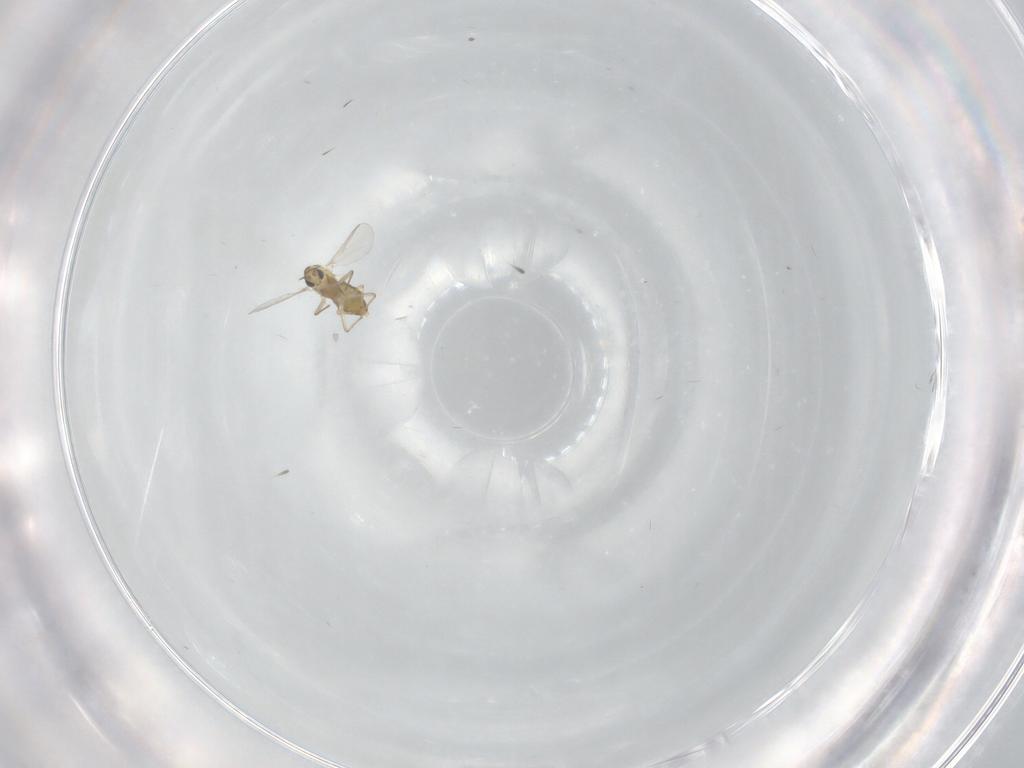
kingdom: Animalia
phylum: Arthropoda
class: Insecta
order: Diptera
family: Chironomidae
